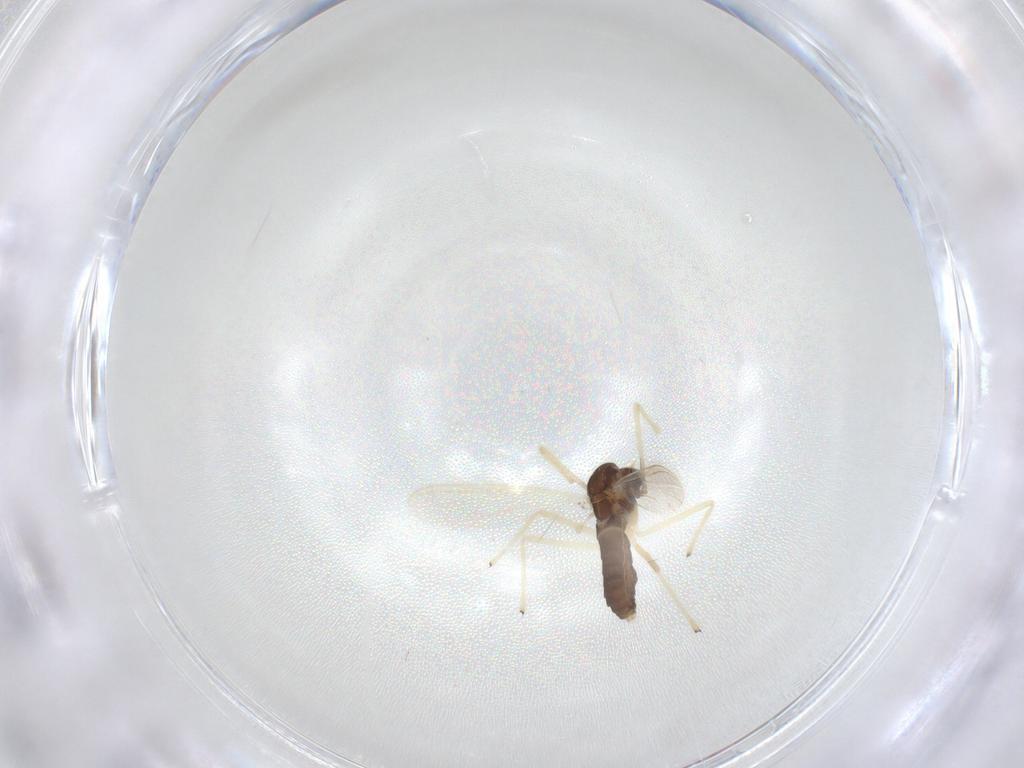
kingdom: Animalia
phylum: Arthropoda
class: Insecta
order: Diptera
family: Chironomidae
